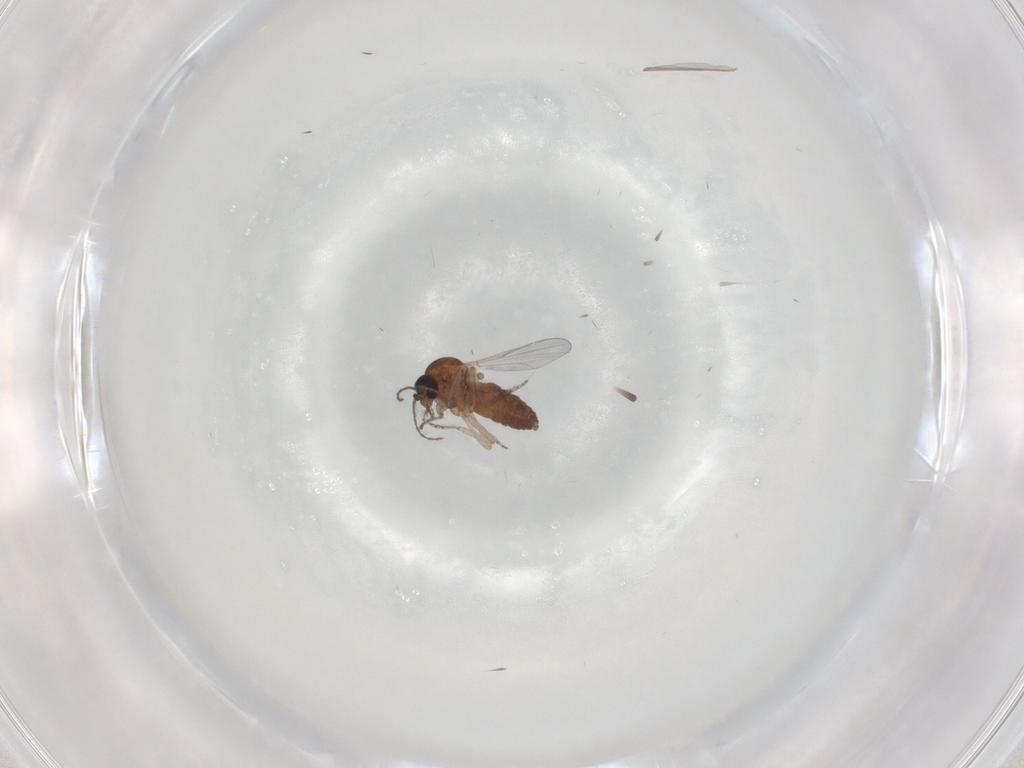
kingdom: Animalia
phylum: Arthropoda
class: Insecta
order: Diptera
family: Ceratopogonidae
